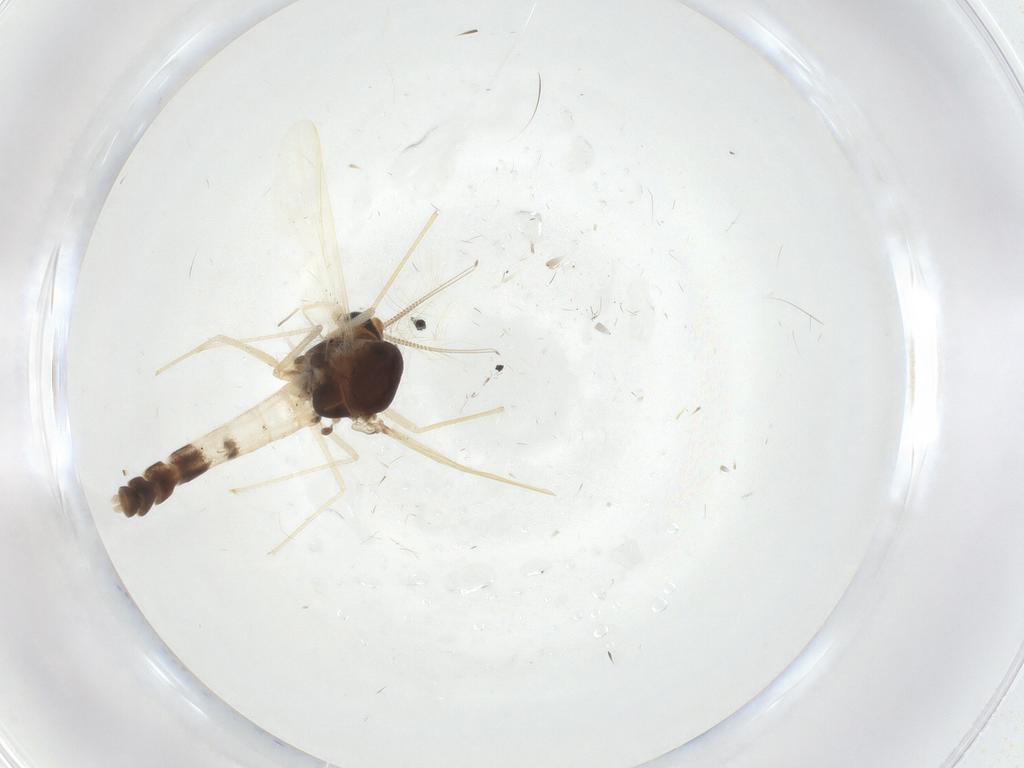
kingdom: Animalia
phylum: Arthropoda
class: Insecta
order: Diptera
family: Chironomidae
